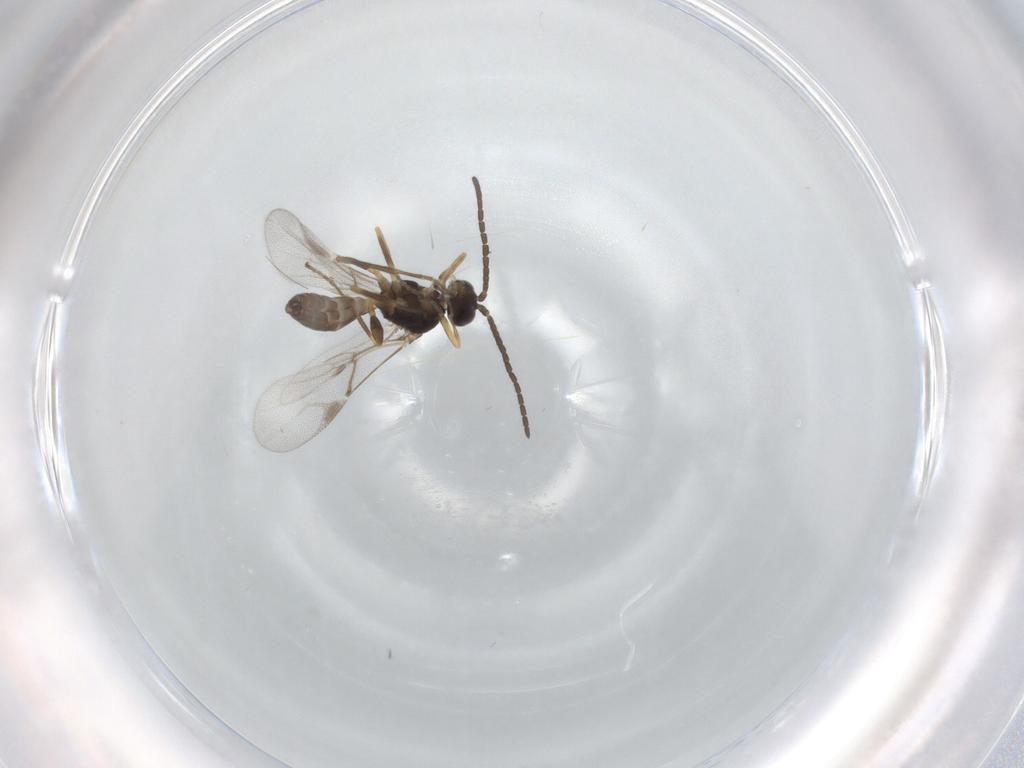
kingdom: Animalia
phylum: Arthropoda
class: Insecta
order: Hymenoptera
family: Braconidae
